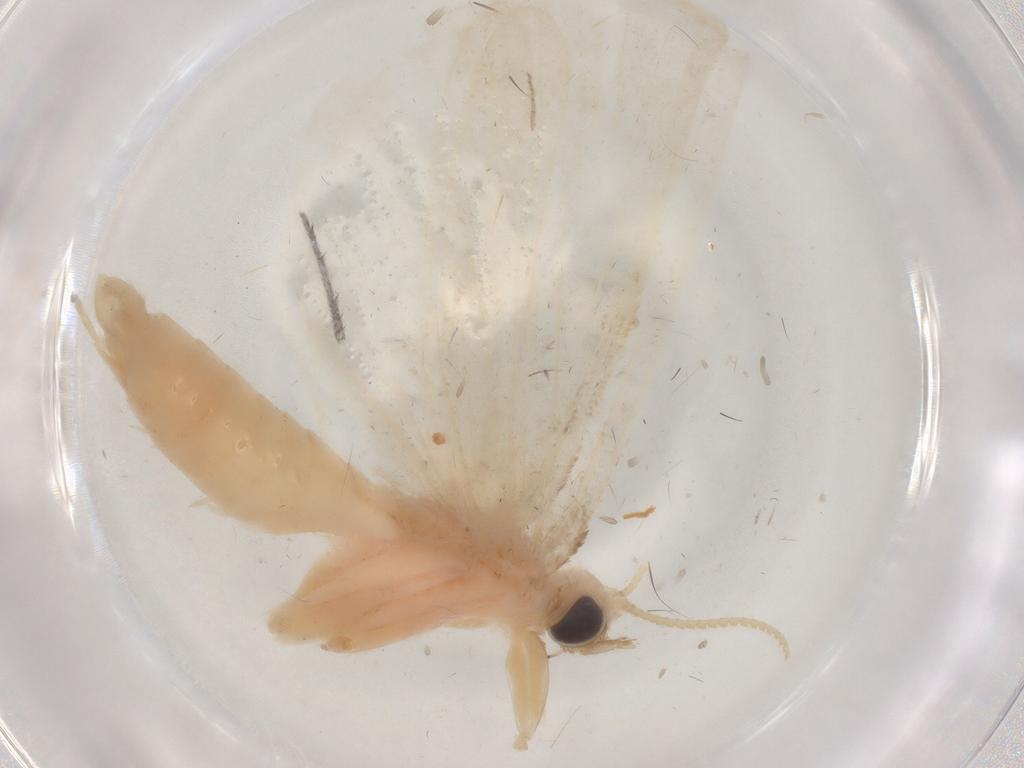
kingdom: Animalia
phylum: Arthropoda
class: Insecta
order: Lepidoptera
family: Crambidae
